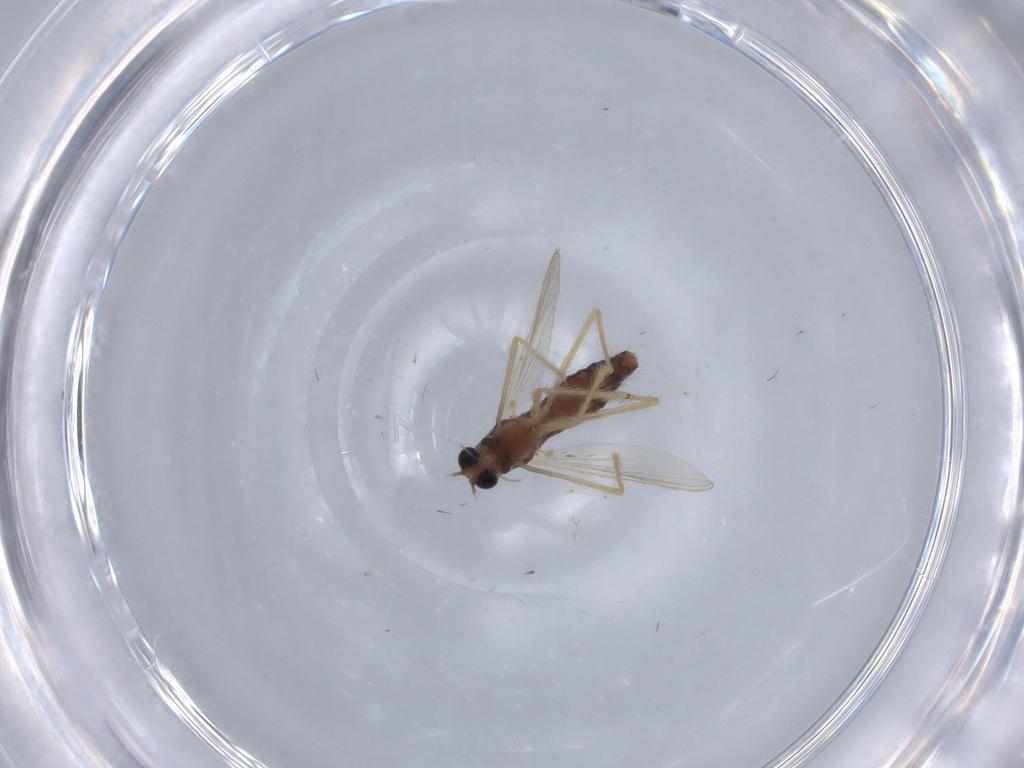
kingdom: Animalia
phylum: Arthropoda
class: Insecta
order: Diptera
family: Chironomidae
